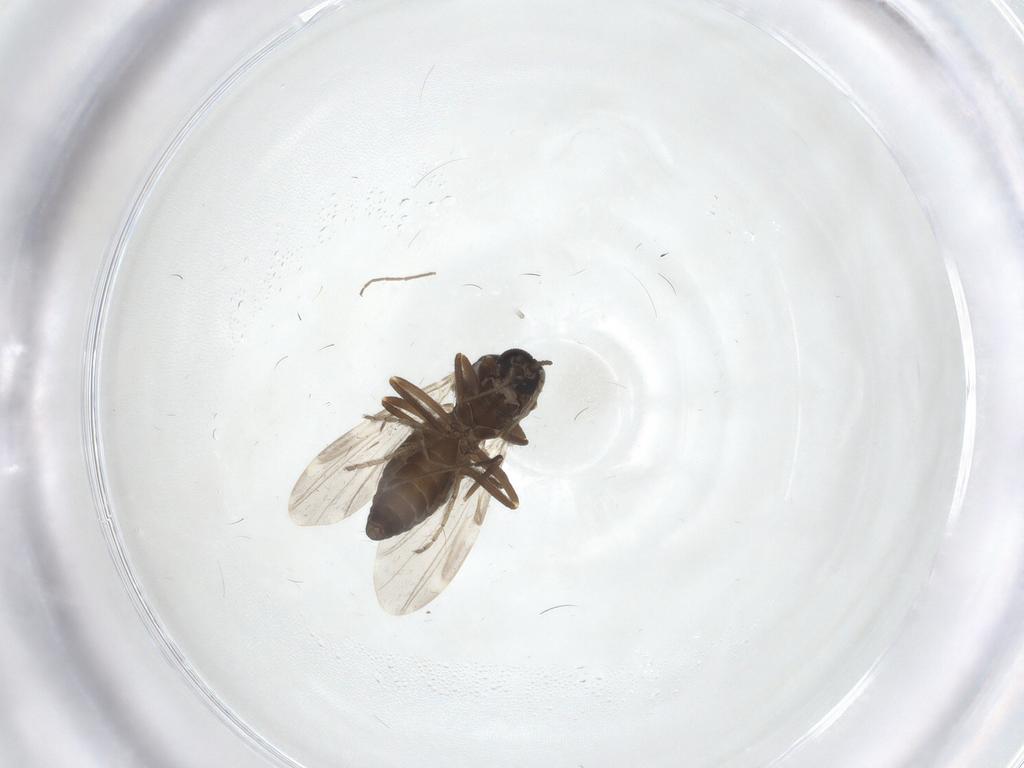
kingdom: Animalia
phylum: Arthropoda
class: Insecta
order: Diptera
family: Ceratopogonidae
